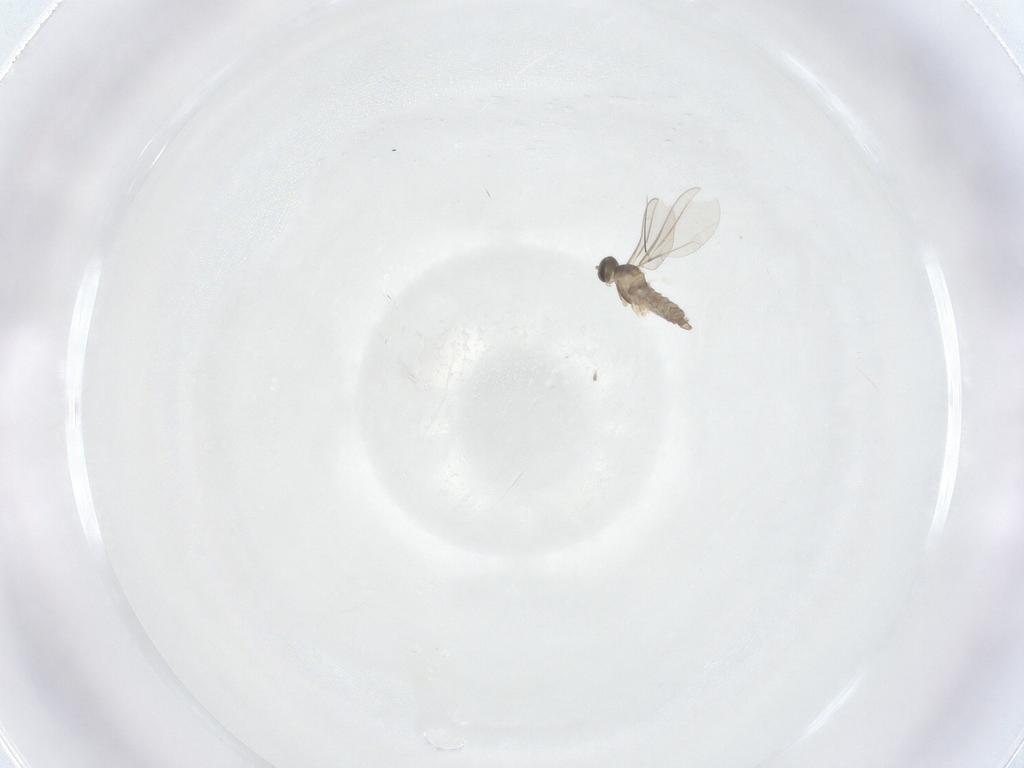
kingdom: Animalia
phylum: Arthropoda
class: Insecta
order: Diptera
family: Cecidomyiidae
